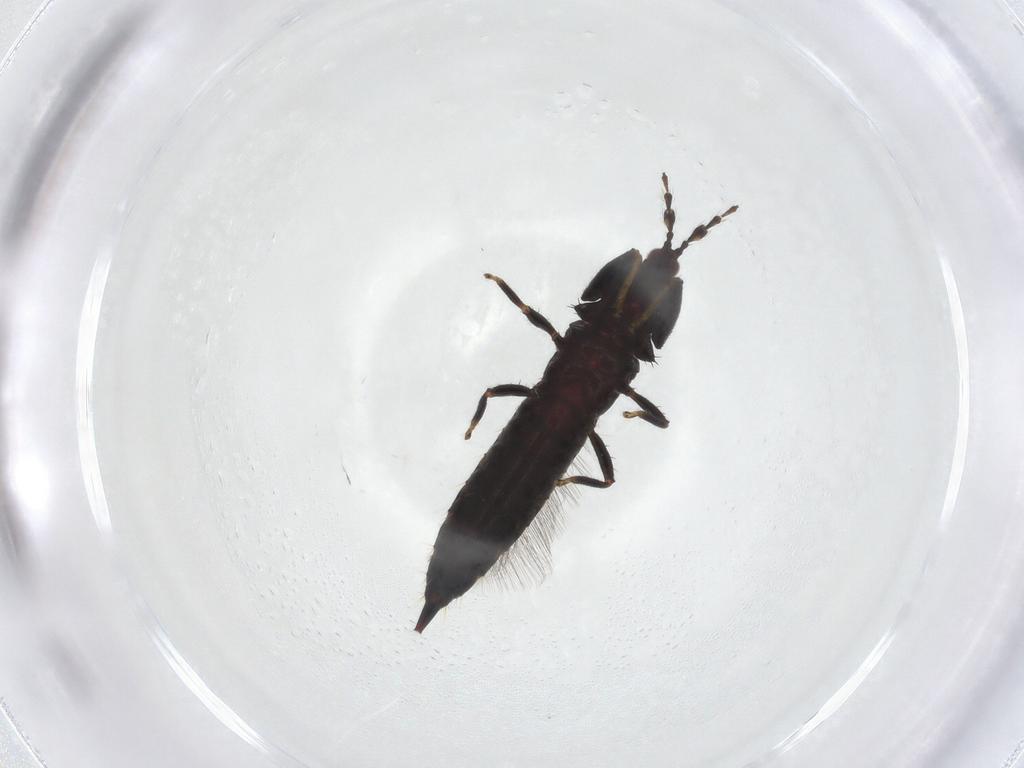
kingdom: Animalia
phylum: Arthropoda
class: Insecta
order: Thysanoptera
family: Phlaeothripidae
